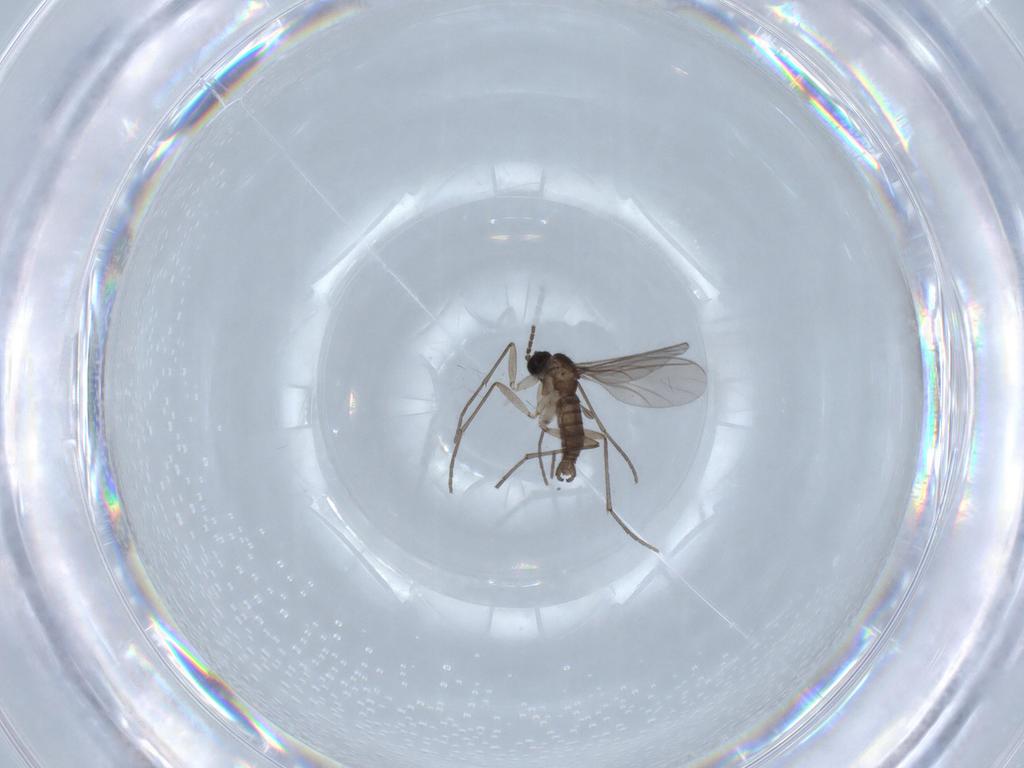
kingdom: Animalia
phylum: Arthropoda
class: Insecta
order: Diptera
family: Sciaridae
